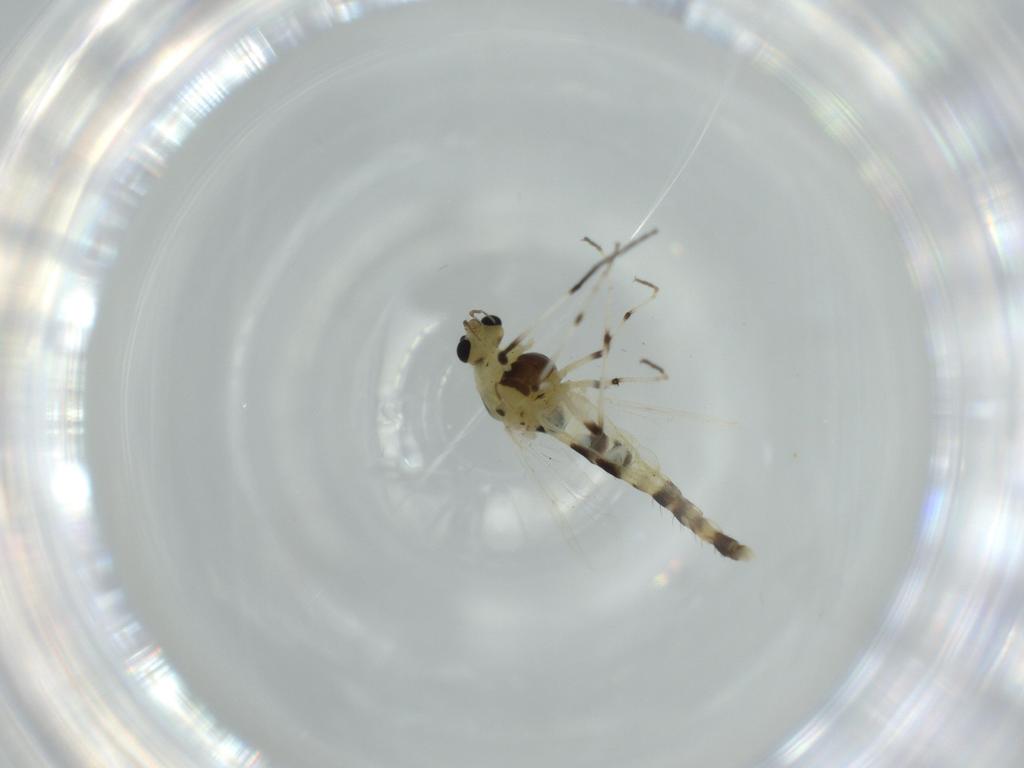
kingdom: Animalia
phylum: Arthropoda
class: Insecta
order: Diptera
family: Chironomidae
